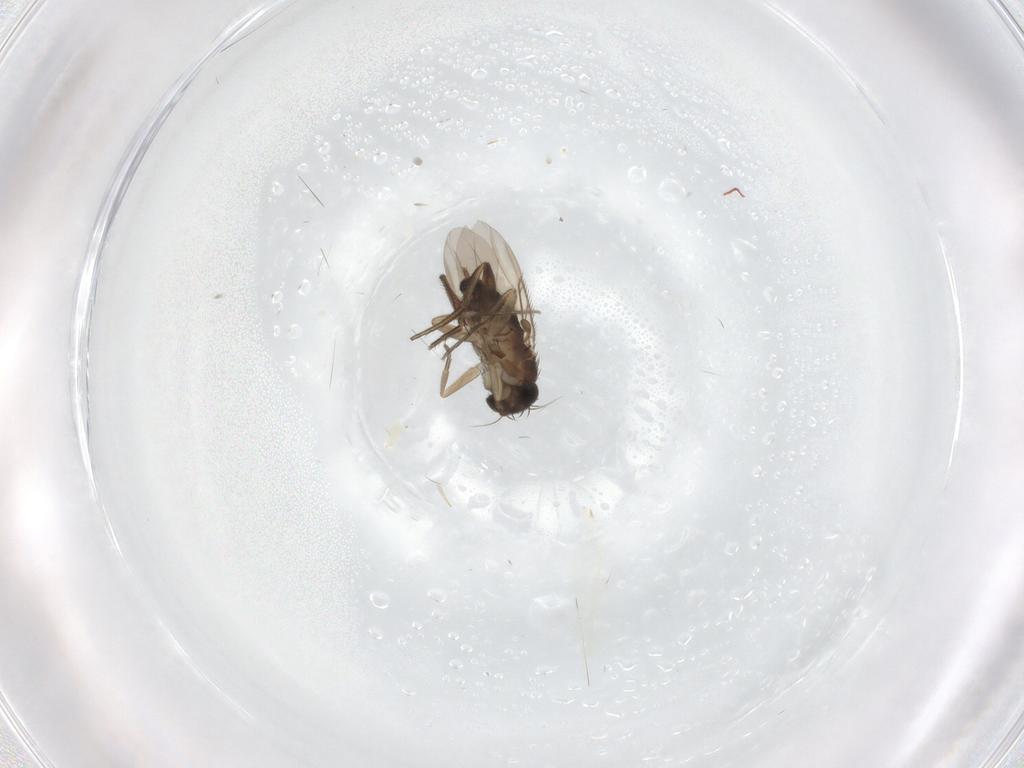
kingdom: Animalia
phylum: Arthropoda
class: Insecta
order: Diptera
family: Phoridae
